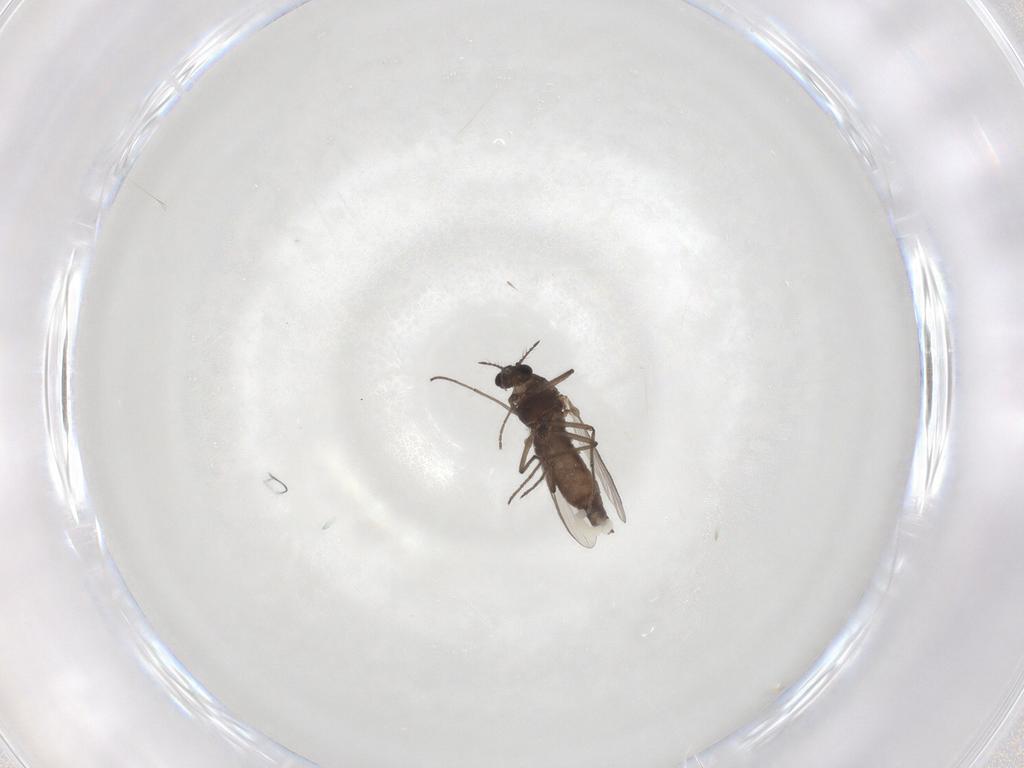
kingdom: Animalia
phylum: Arthropoda
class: Insecta
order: Diptera
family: Chironomidae
